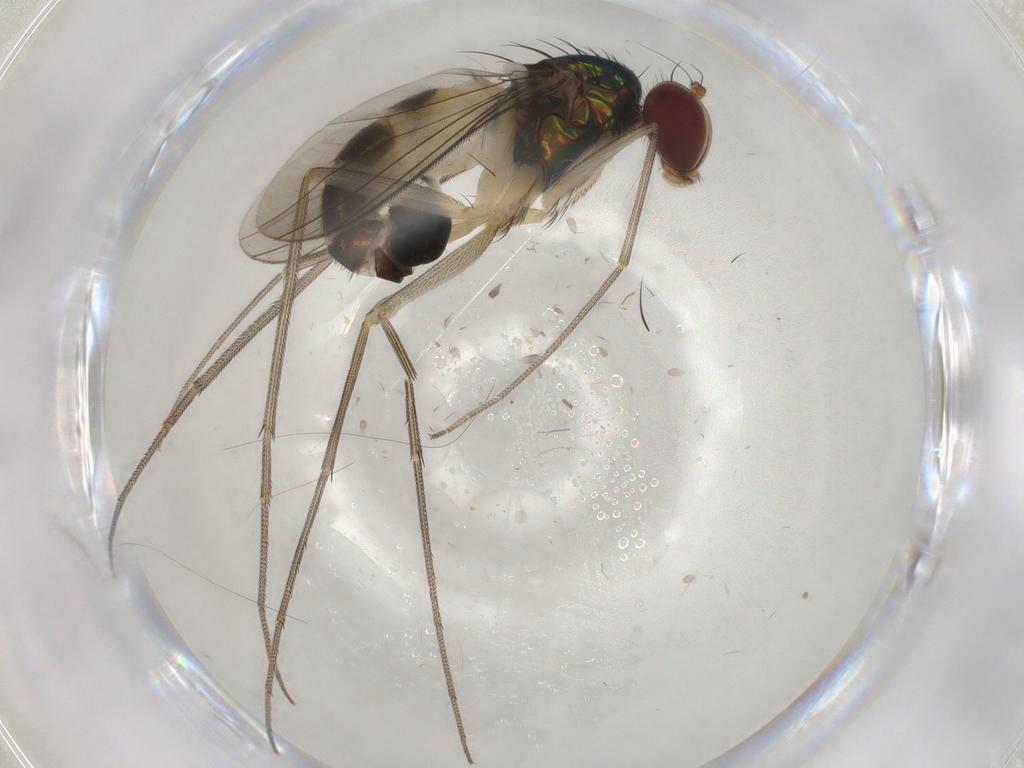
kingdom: Animalia
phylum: Arthropoda
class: Insecta
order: Diptera
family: Dolichopodidae
